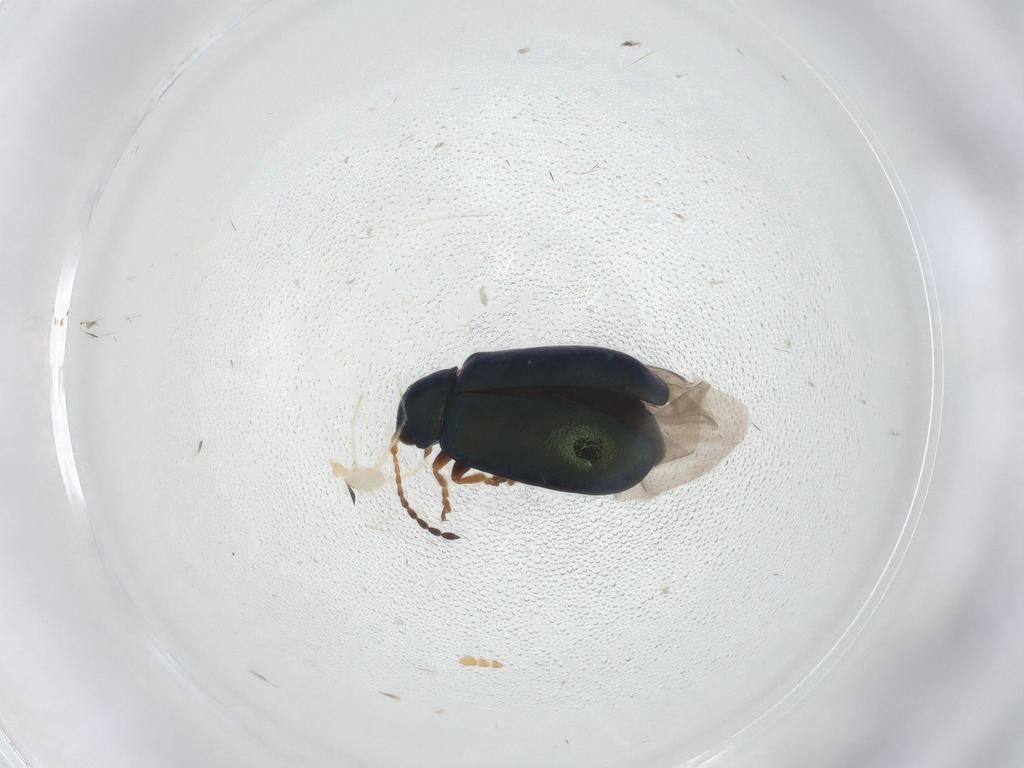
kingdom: Animalia
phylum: Arthropoda
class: Insecta
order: Coleoptera
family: Chrysomelidae
